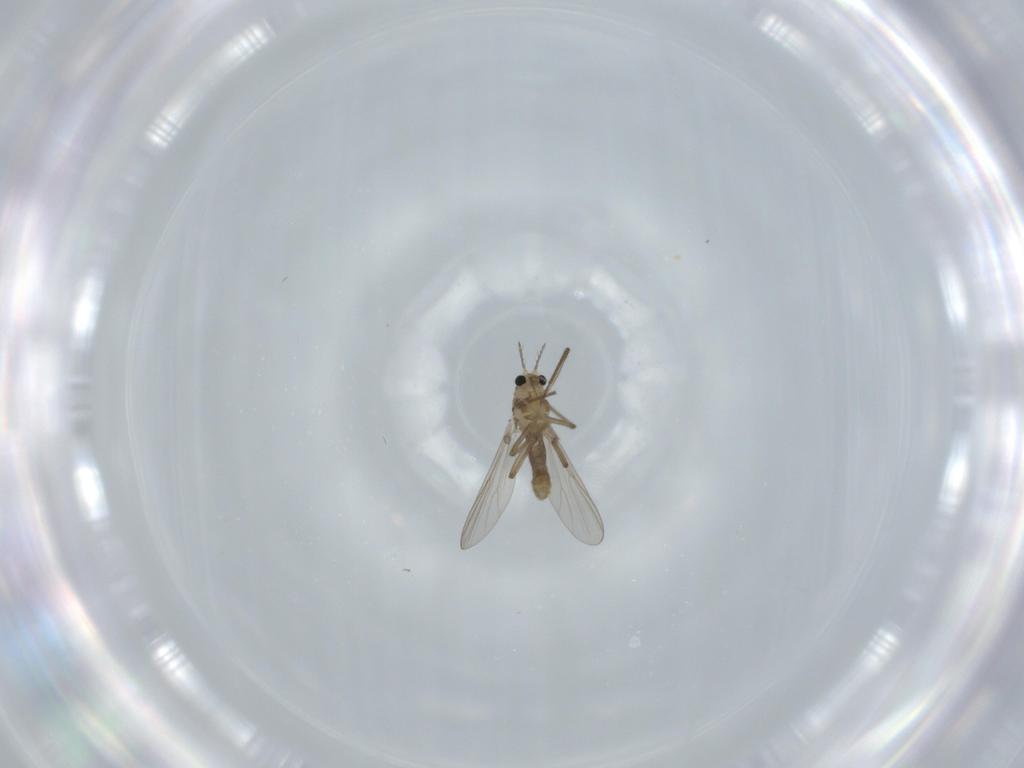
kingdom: Animalia
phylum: Arthropoda
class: Insecta
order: Diptera
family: Chironomidae
